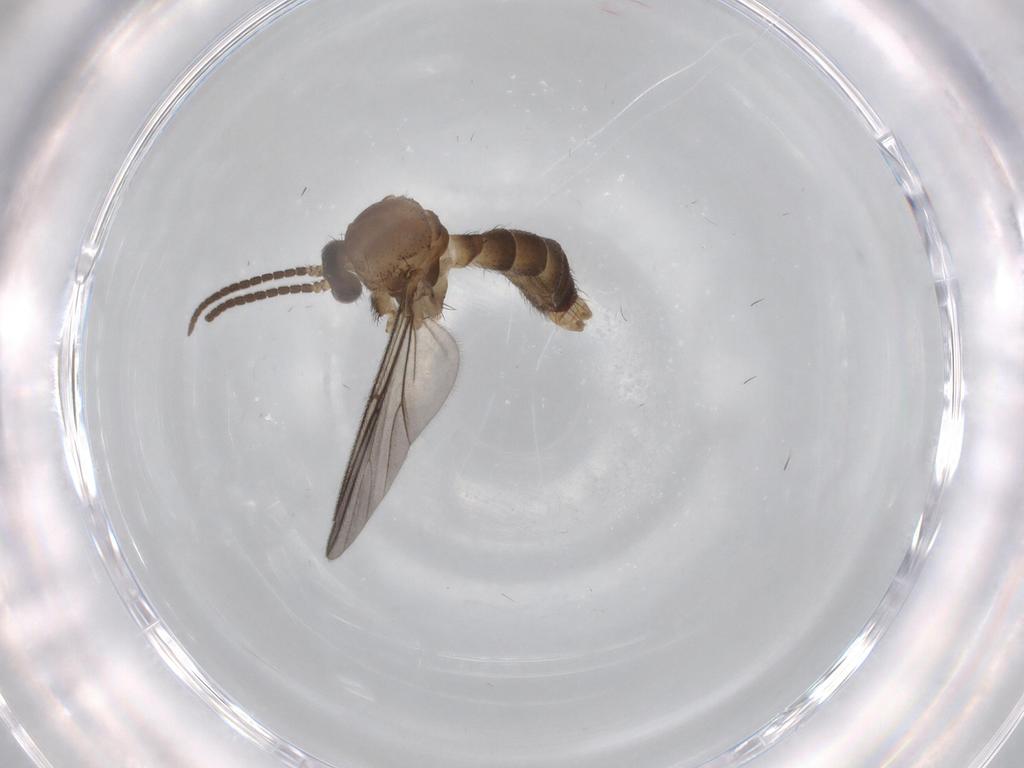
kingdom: Animalia
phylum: Arthropoda
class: Insecta
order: Diptera
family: Cecidomyiidae
